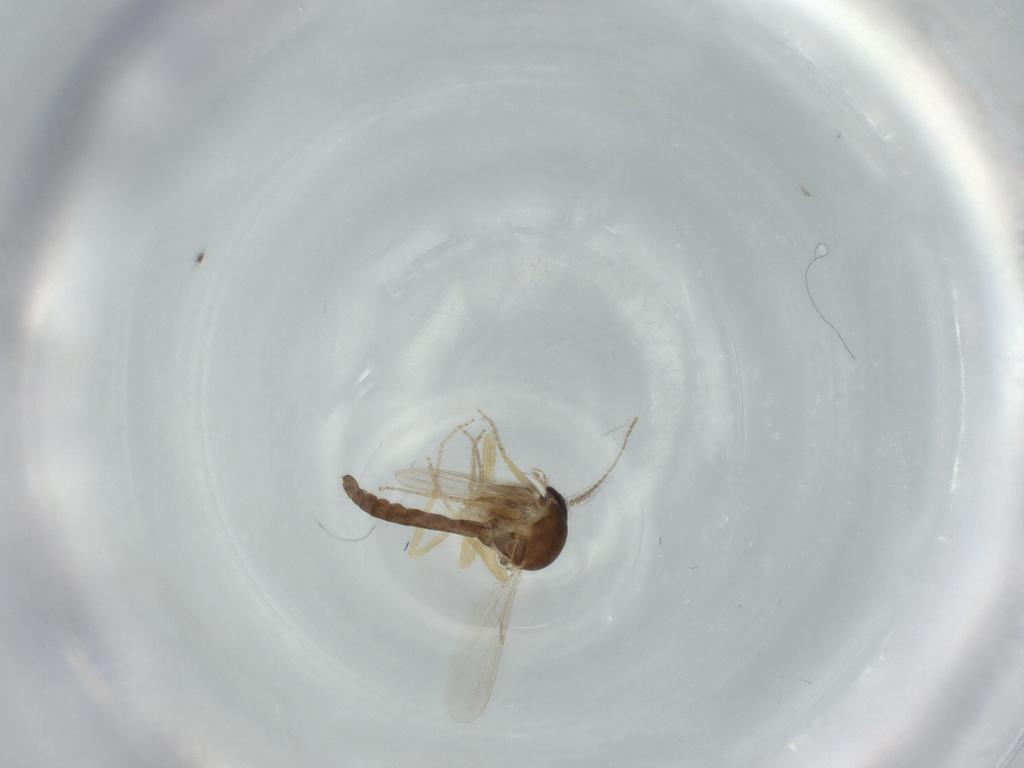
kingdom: Animalia
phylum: Arthropoda
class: Insecta
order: Diptera
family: Ceratopogonidae
